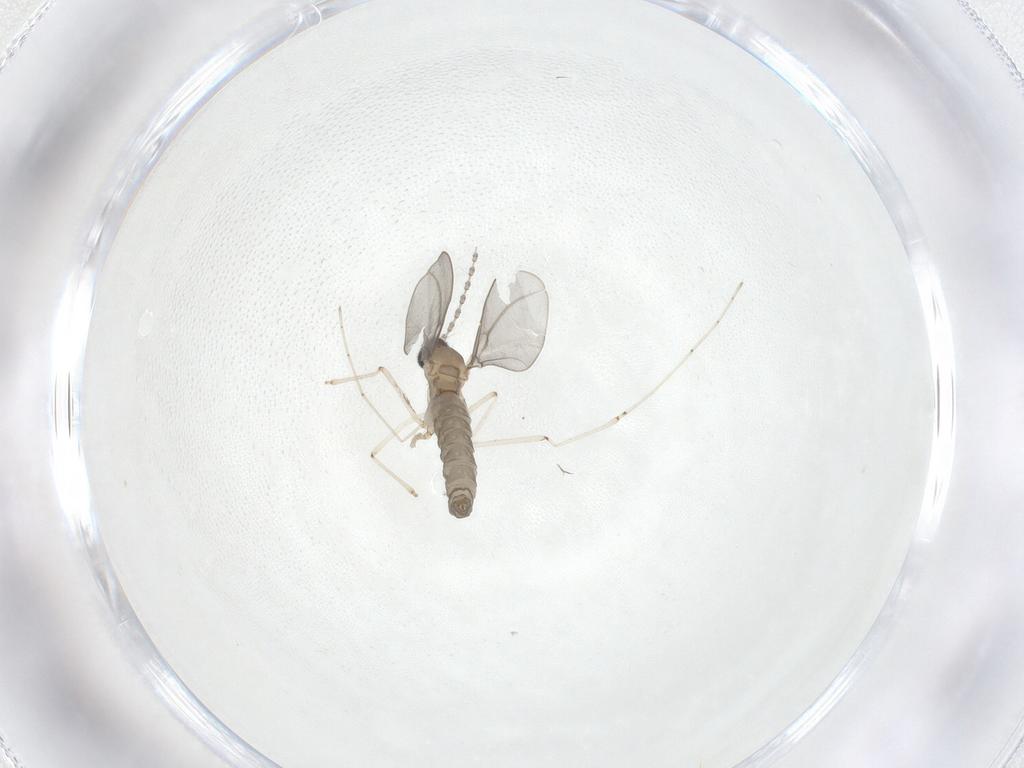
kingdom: Animalia
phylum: Arthropoda
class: Insecta
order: Diptera
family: Cecidomyiidae
